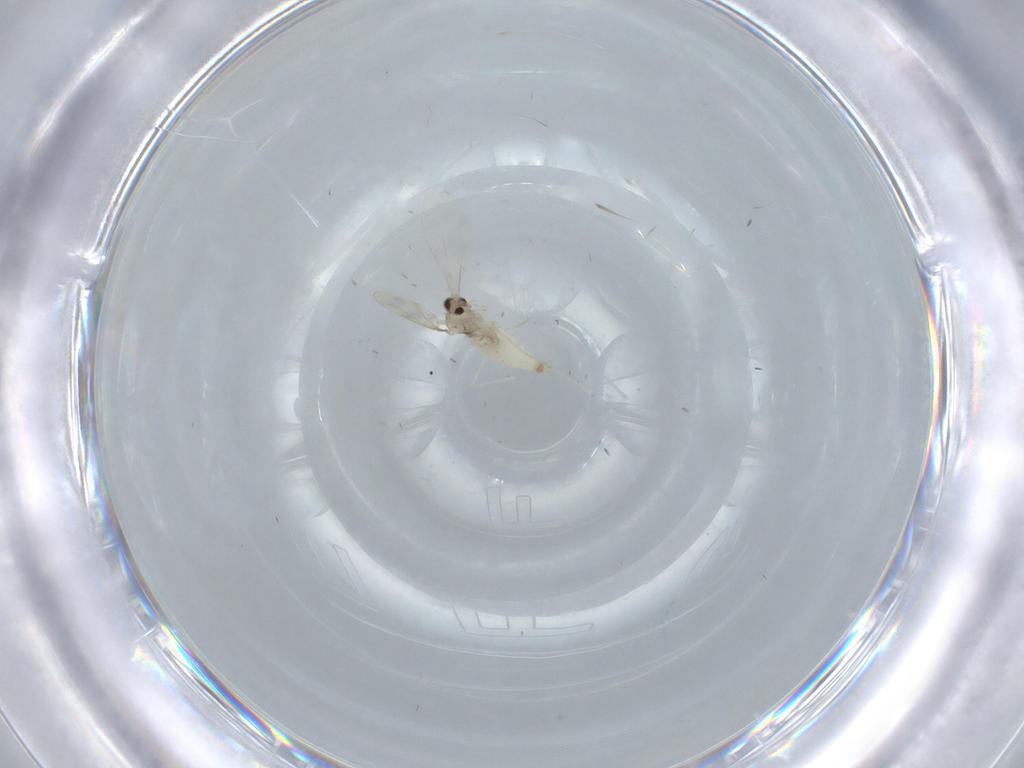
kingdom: Animalia
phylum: Arthropoda
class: Insecta
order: Diptera
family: Cecidomyiidae
